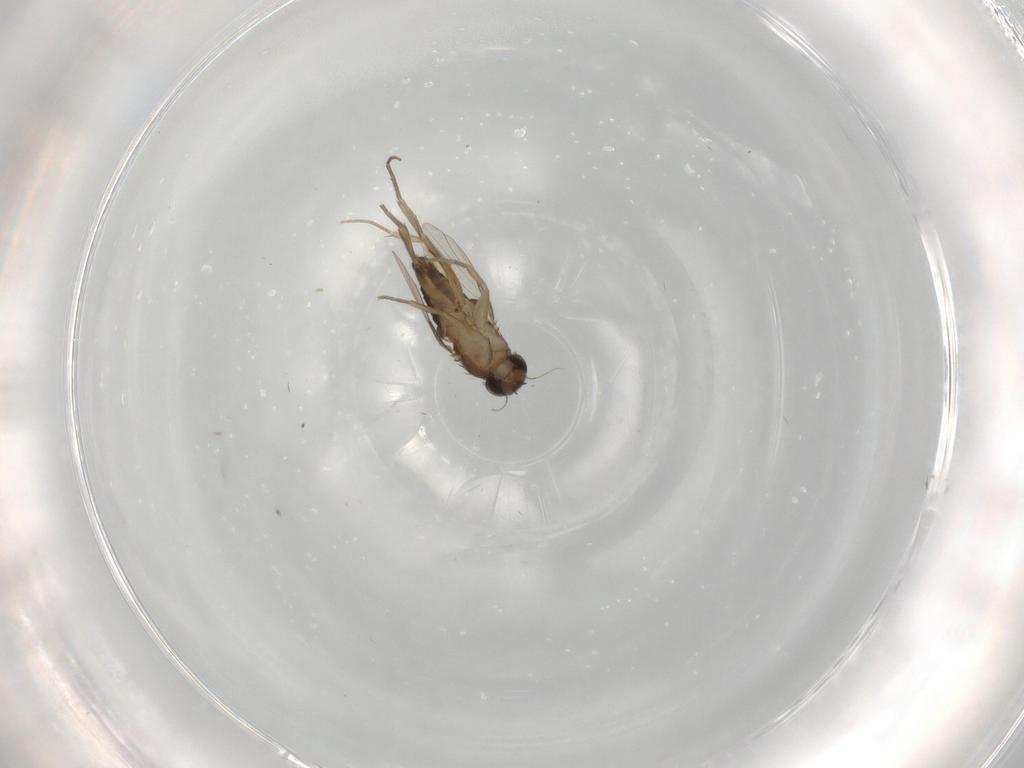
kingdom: Animalia
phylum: Arthropoda
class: Insecta
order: Diptera
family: Phoridae
